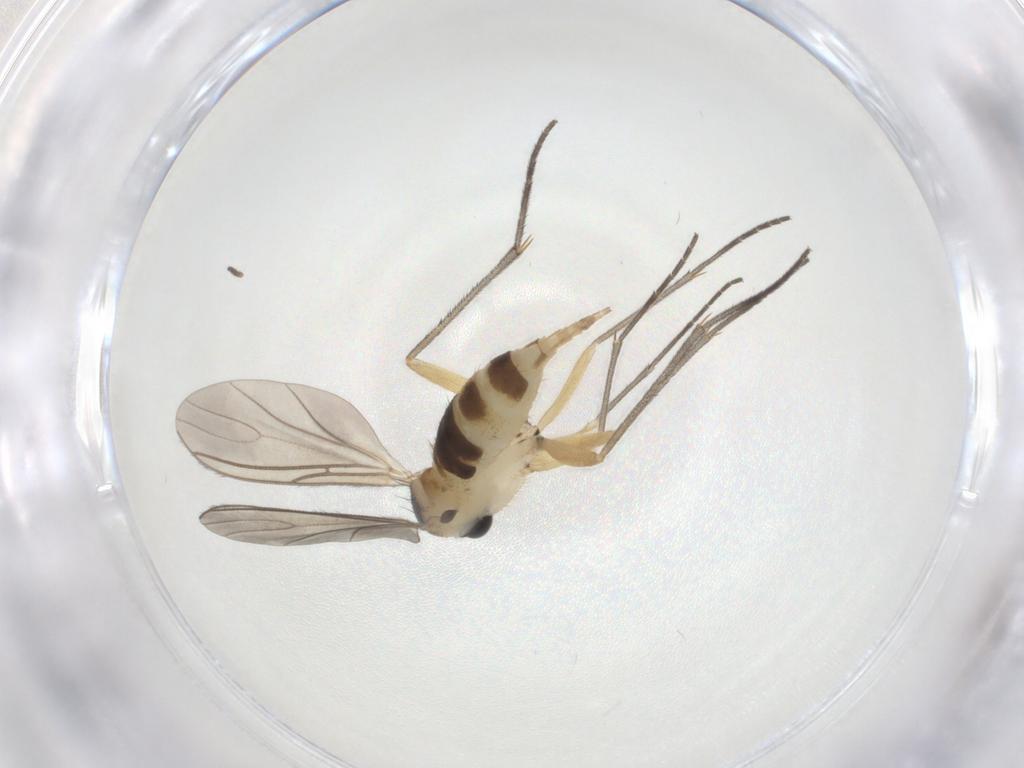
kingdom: Animalia
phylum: Arthropoda
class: Insecta
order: Diptera
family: Sciaridae
